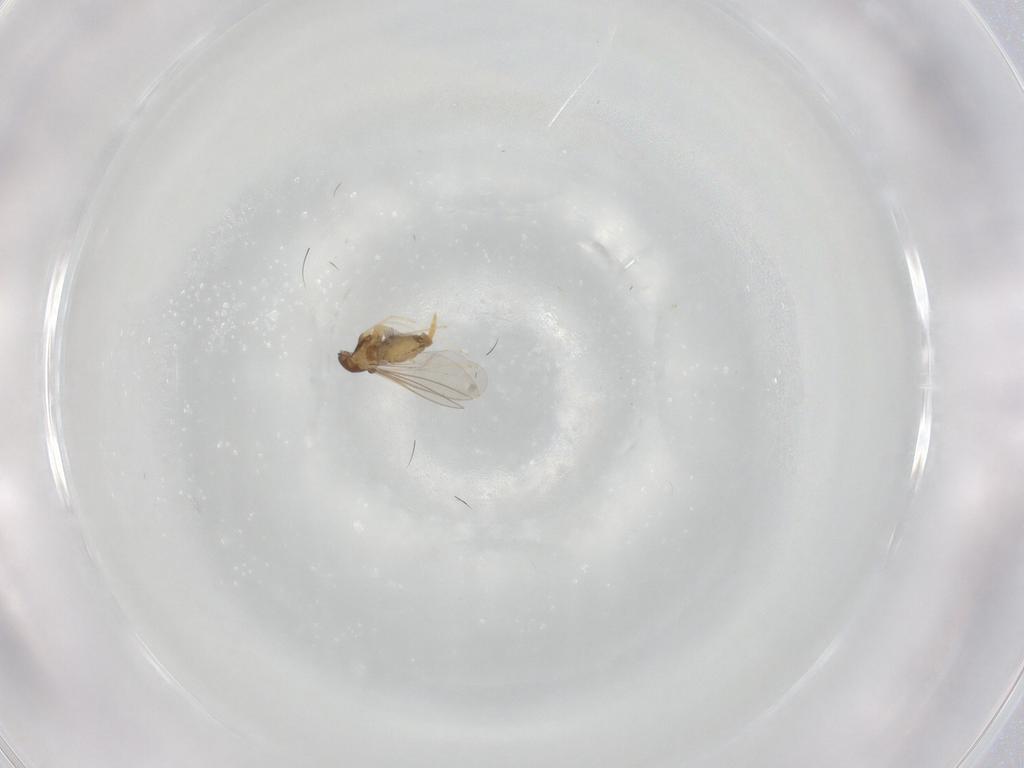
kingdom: Animalia
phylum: Arthropoda
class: Insecta
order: Diptera
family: Cecidomyiidae
